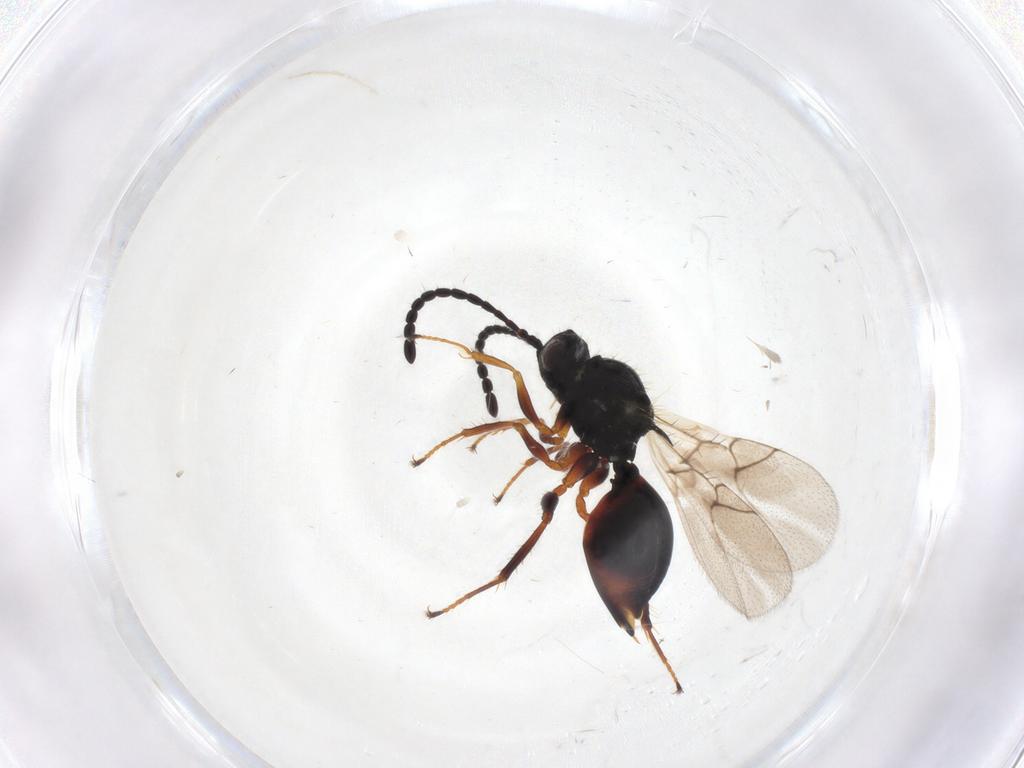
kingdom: Animalia
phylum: Arthropoda
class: Insecta
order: Hymenoptera
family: Figitidae
